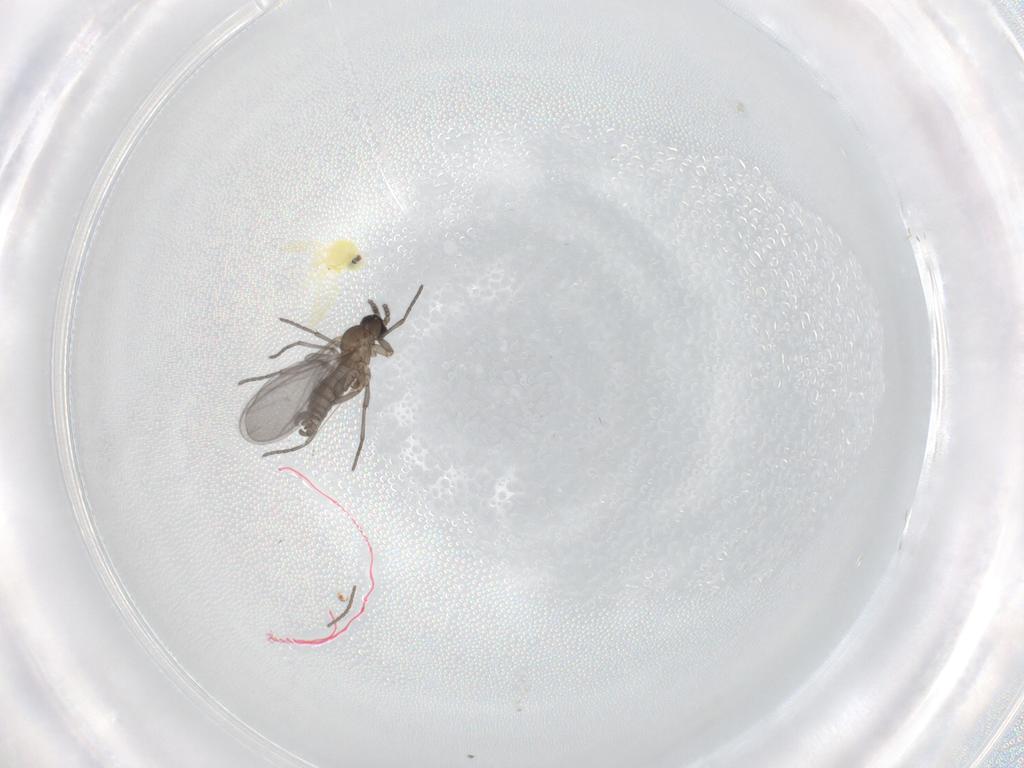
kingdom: Animalia
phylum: Arthropoda
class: Insecta
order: Diptera
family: Sciaridae
